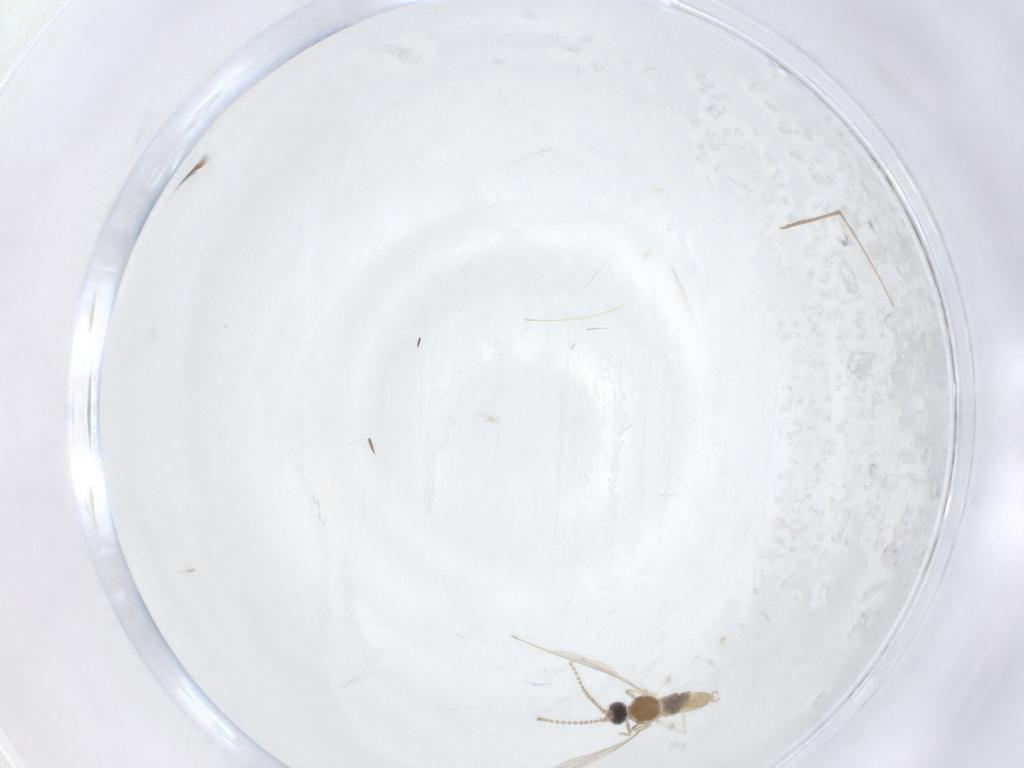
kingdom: Animalia
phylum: Arthropoda
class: Insecta
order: Diptera
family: Cecidomyiidae
